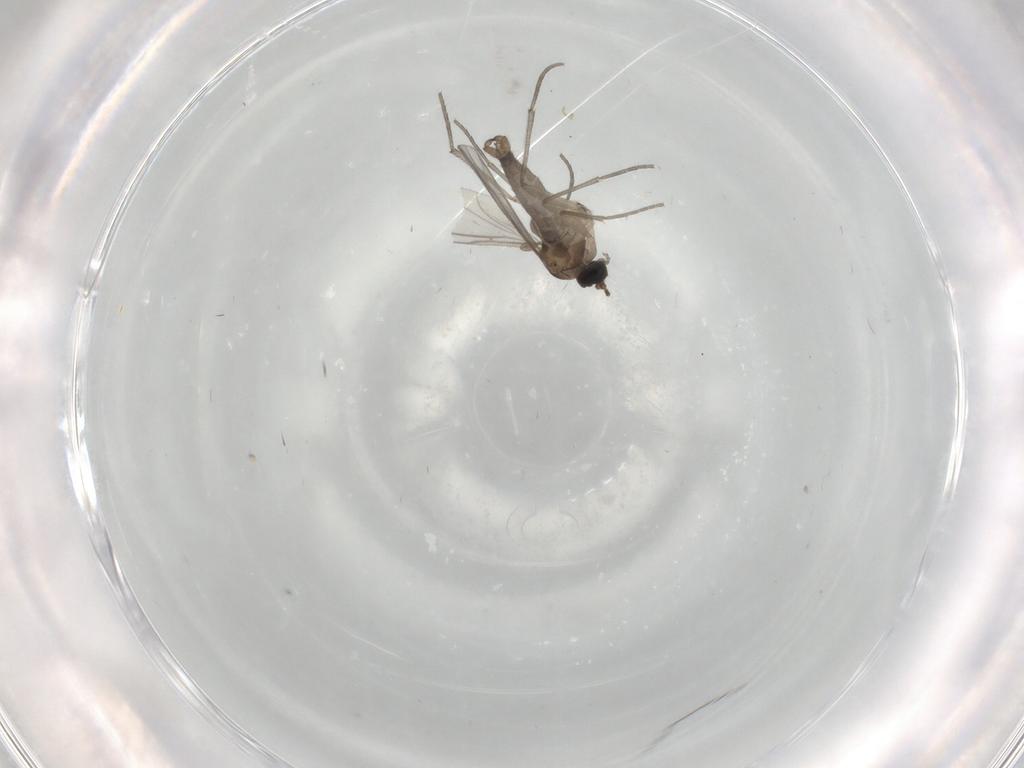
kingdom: Animalia
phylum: Arthropoda
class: Insecta
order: Diptera
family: Sciaridae
